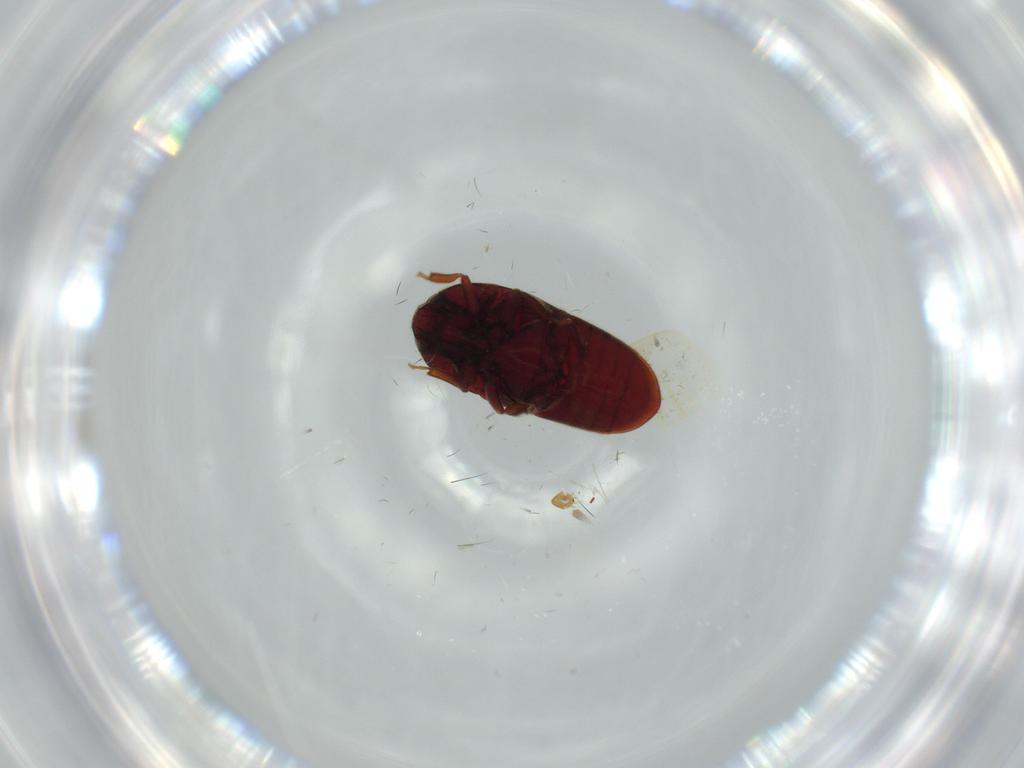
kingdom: Animalia
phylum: Arthropoda
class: Insecta
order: Coleoptera
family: Throscidae
